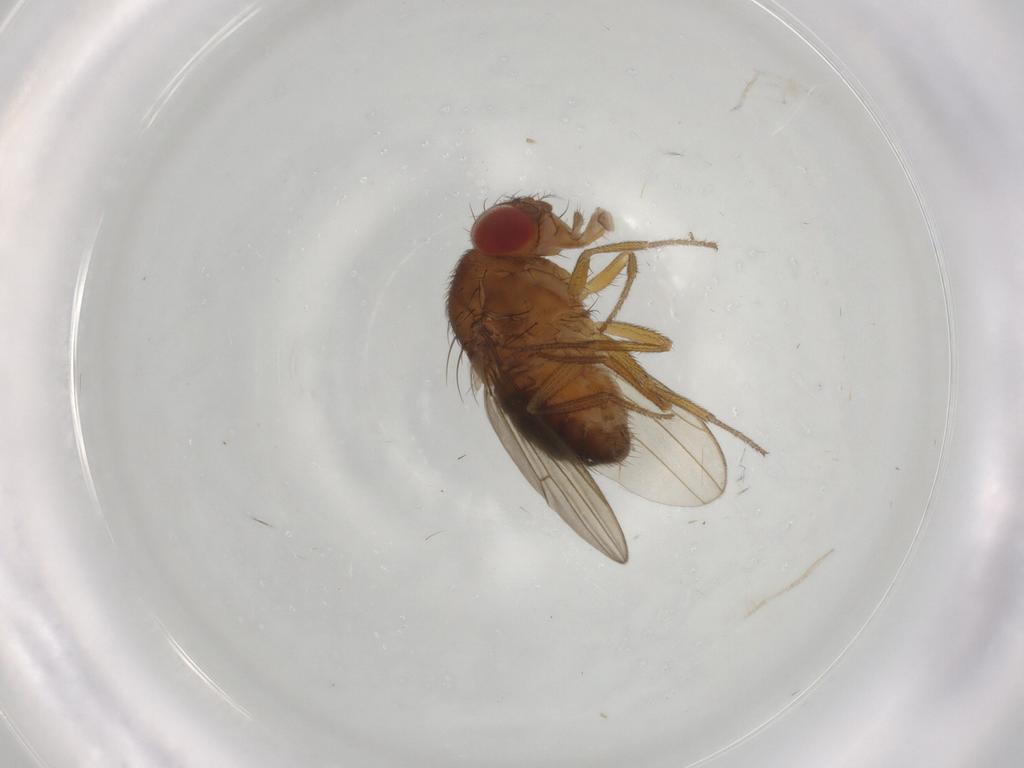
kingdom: Animalia
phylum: Arthropoda
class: Insecta
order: Diptera
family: Drosophilidae
